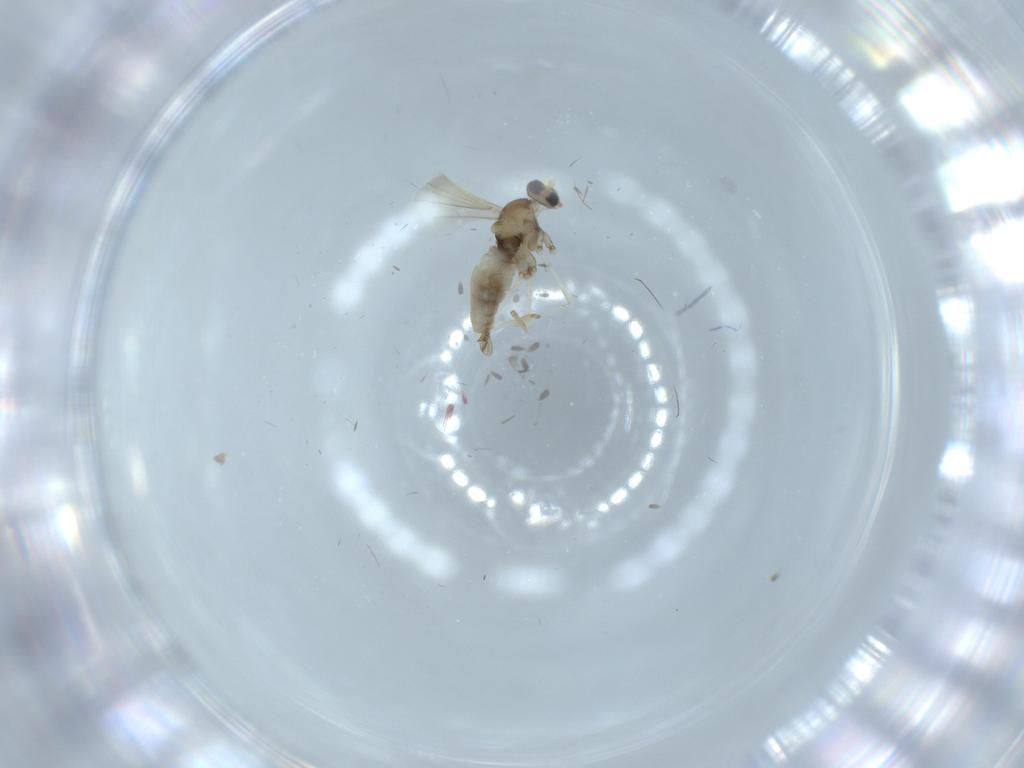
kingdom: Animalia
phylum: Arthropoda
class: Insecta
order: Diptera
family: Cecidomyiidae
